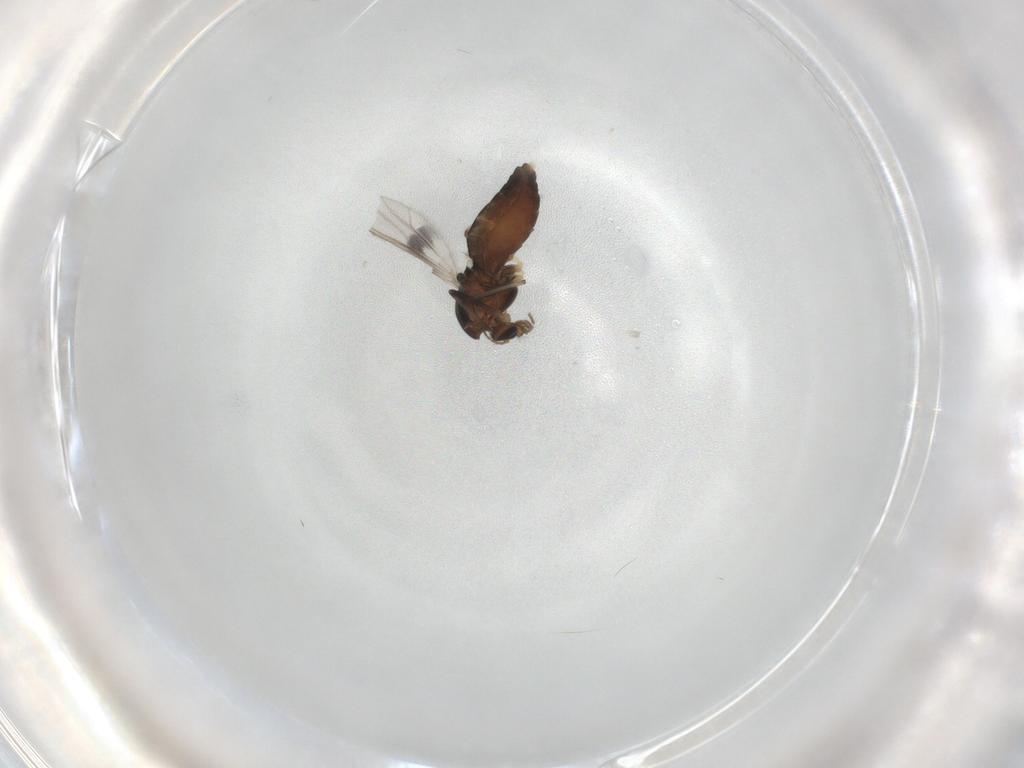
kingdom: Animalia
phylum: Arthropoda
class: Insecta
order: Diptera
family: Chironomidae
